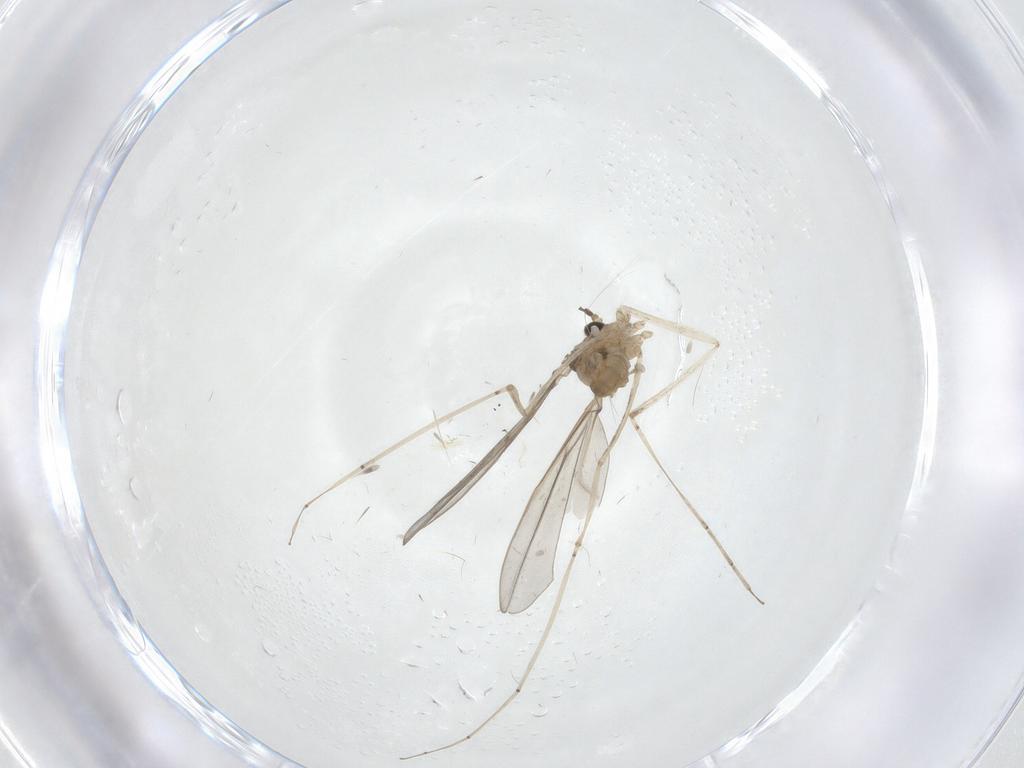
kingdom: Animalia
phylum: Arthropoda
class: Insecta
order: Diptera
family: Cecidomyiidae
